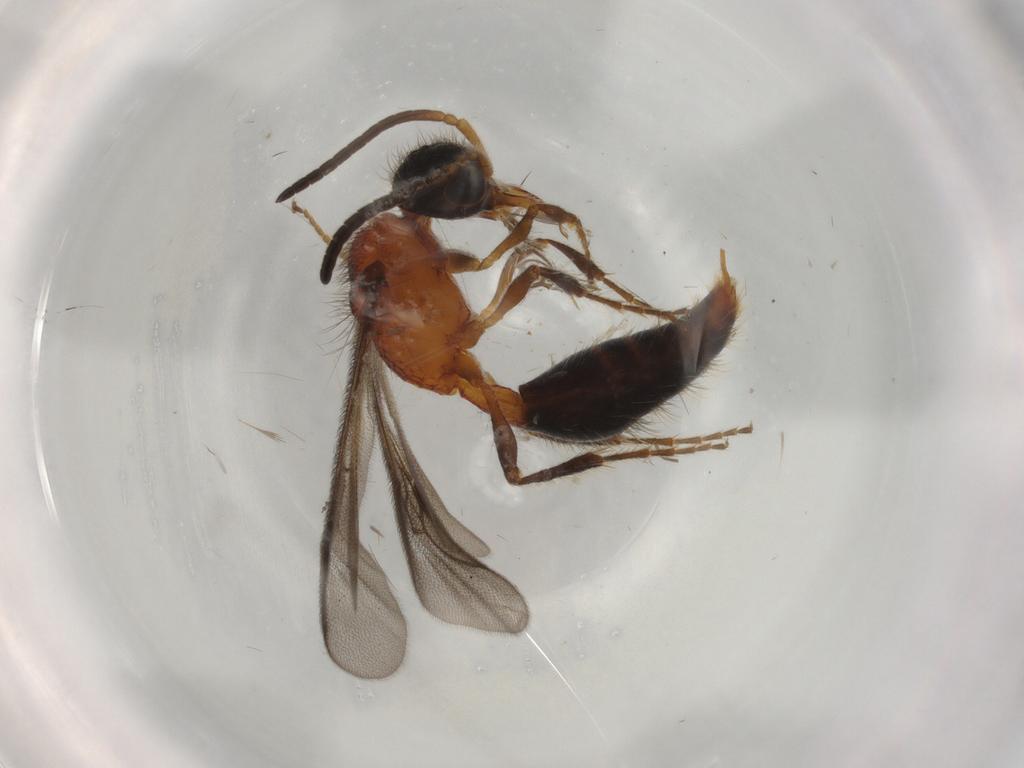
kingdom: Animalia
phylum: Arthropoda
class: Insecta
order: Hymenoptera
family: Mutillidae
